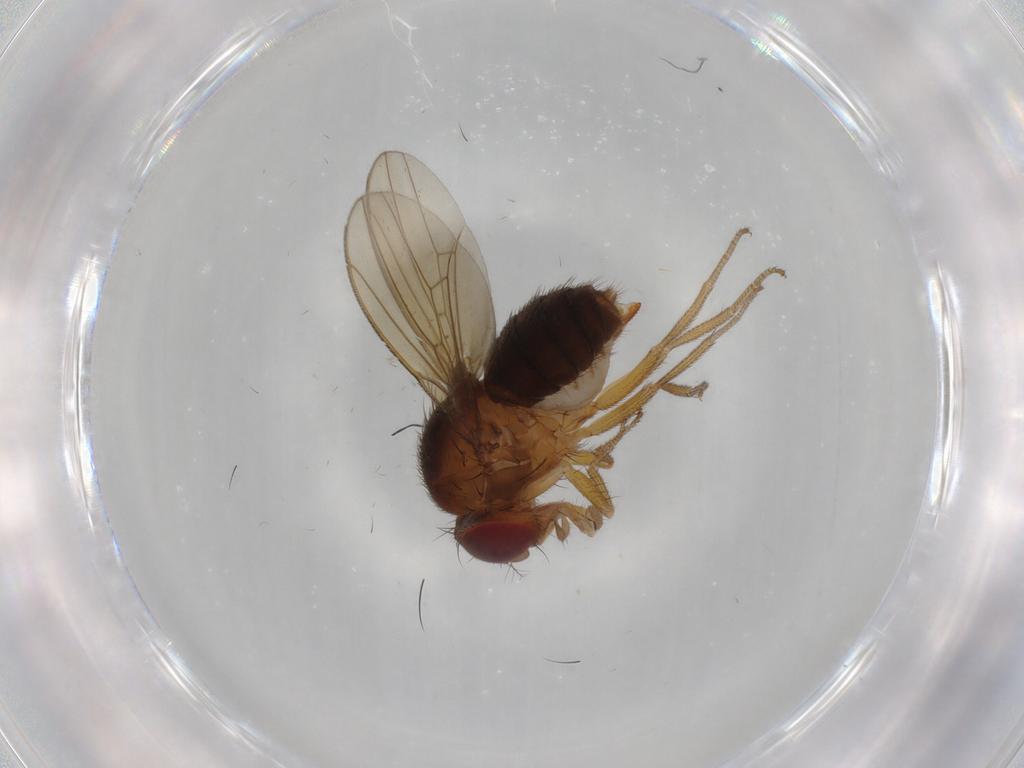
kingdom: Animalia
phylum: Arthropoda
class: Insecta
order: Diptera
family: Drosophilidae
